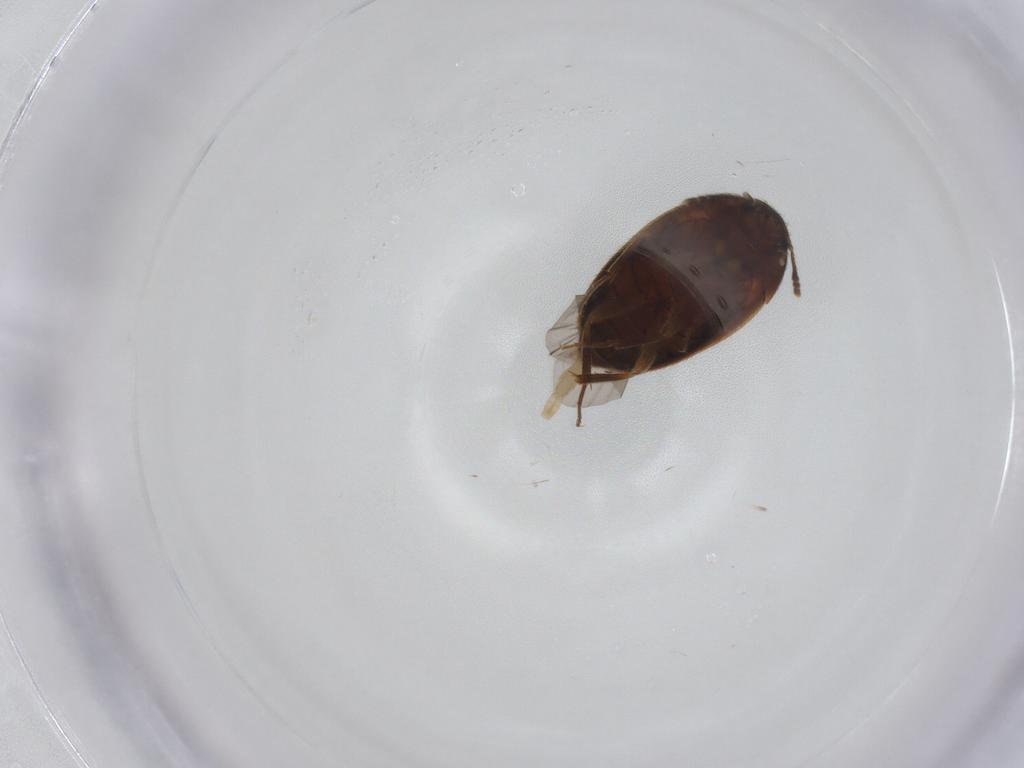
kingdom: Animalia
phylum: Arthropoda
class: Insecta
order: Coleoptera
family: Mycetophagidae
